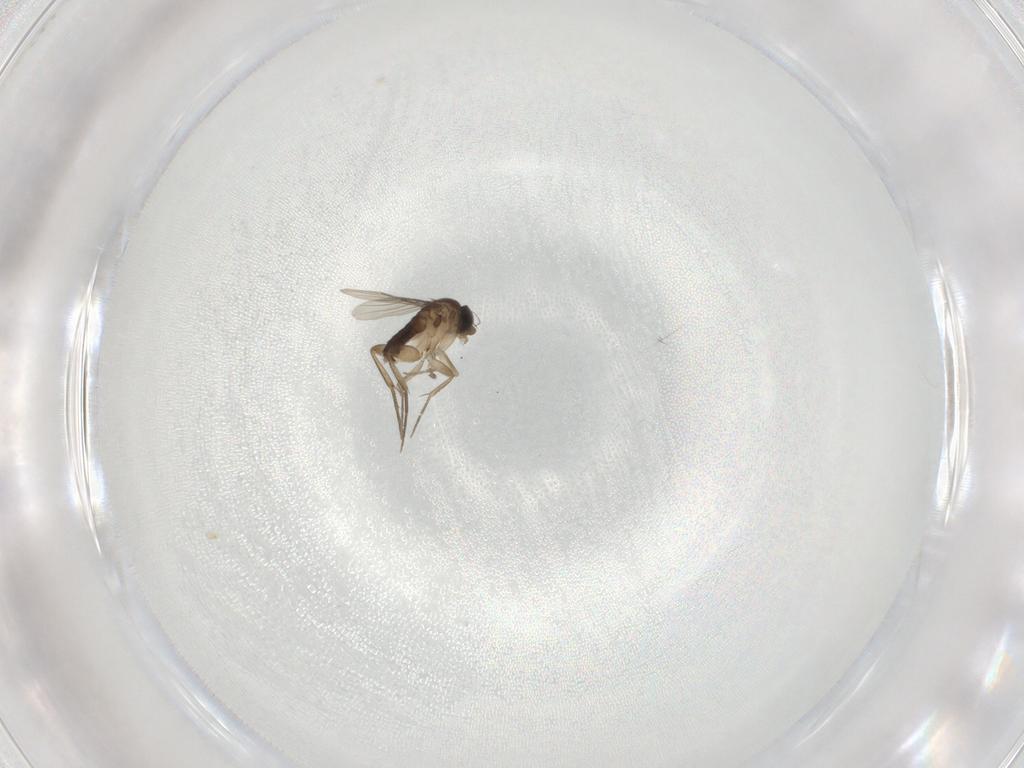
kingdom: Animalia
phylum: Arthropoda
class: Insecta
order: Diptera
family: Phoridae
